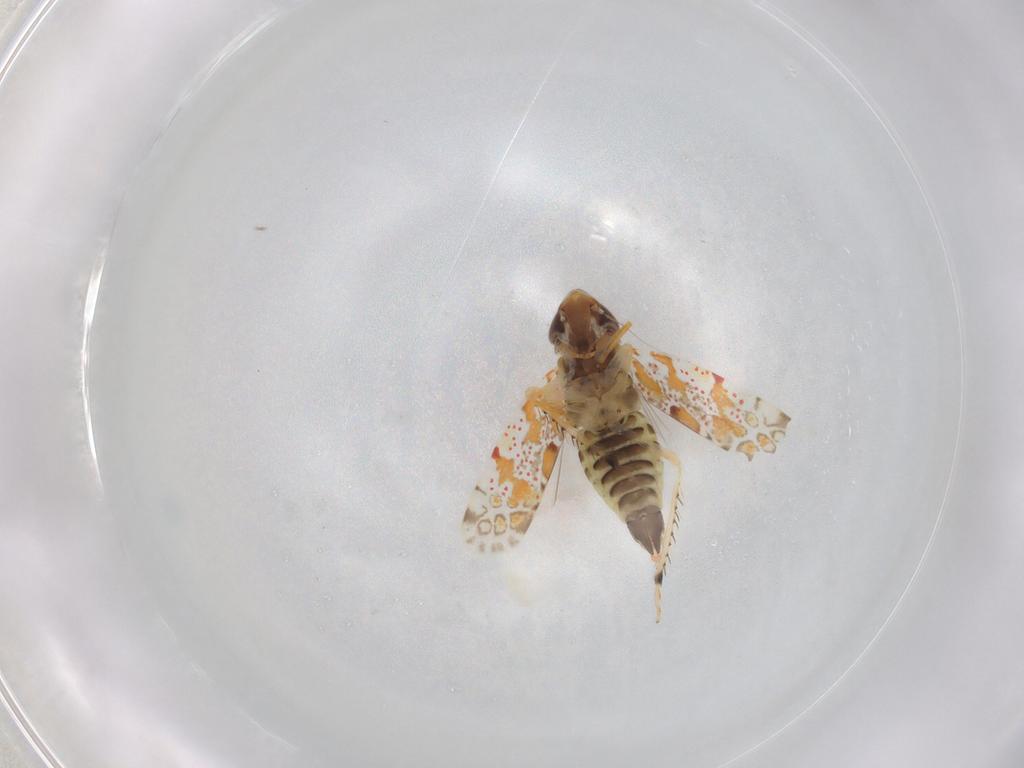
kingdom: Animalia
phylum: Arthropoda
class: Insecta
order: Hemiptera
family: Cicadellidae
